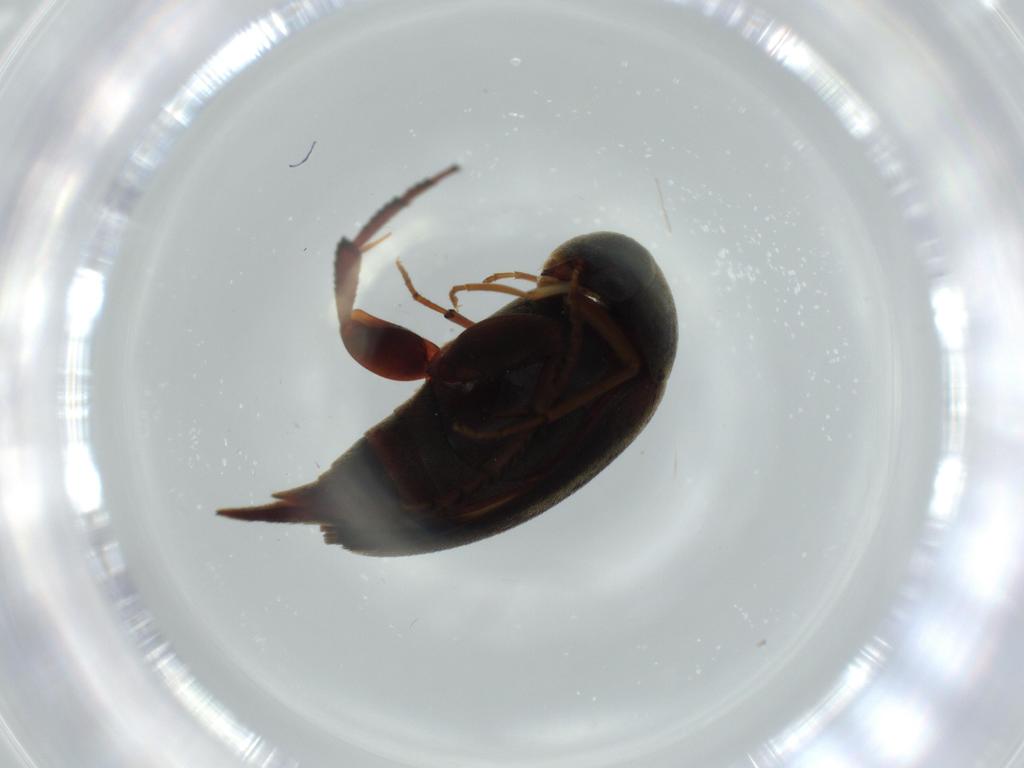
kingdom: Animalia
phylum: Arthropoda
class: Insecta
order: Coleoptera
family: Mordellidae
